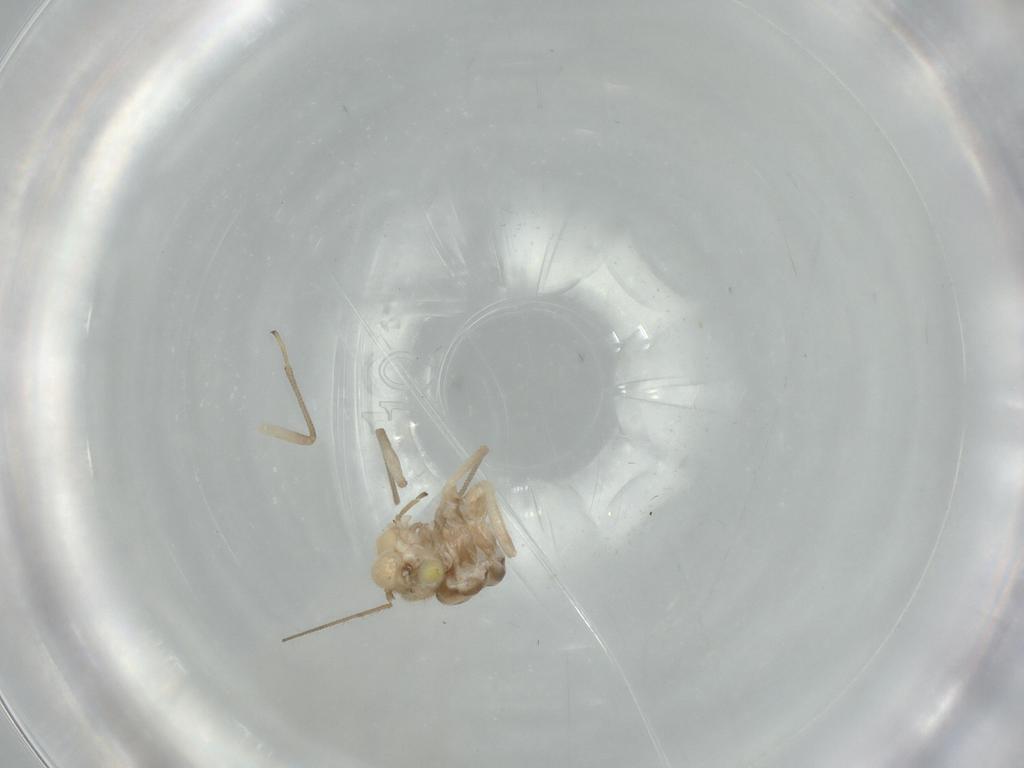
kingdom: Animalia
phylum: Arthropoda
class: Insecta
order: Psocodea
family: Caeciliusidae
